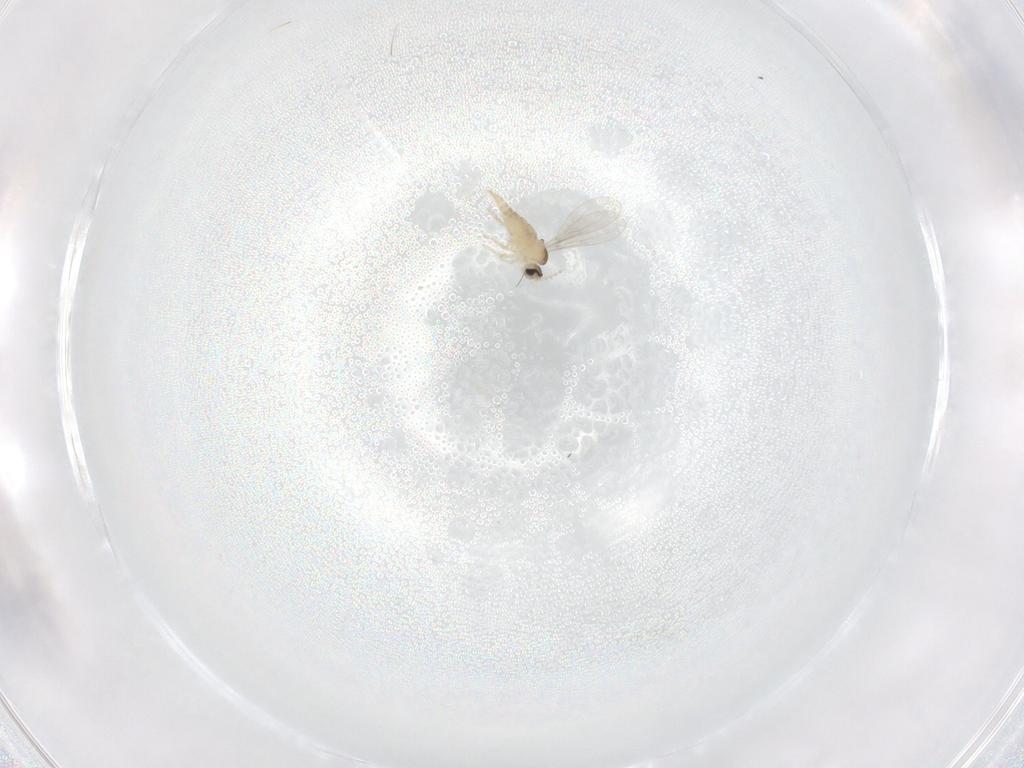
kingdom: Animalia
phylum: Arthropoda
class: Insecta
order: Diptera
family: Cecidomyiidae
